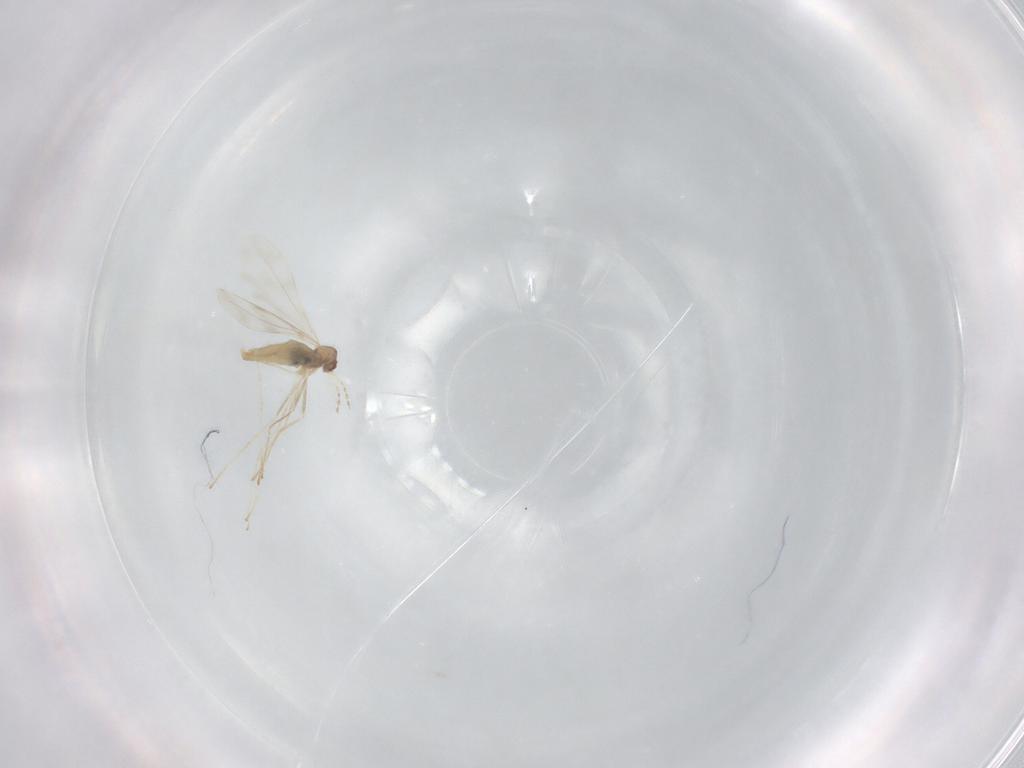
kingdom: Animalia
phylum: Arthropoda
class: Insecta
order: Diptera
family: Cecidomyiidae
